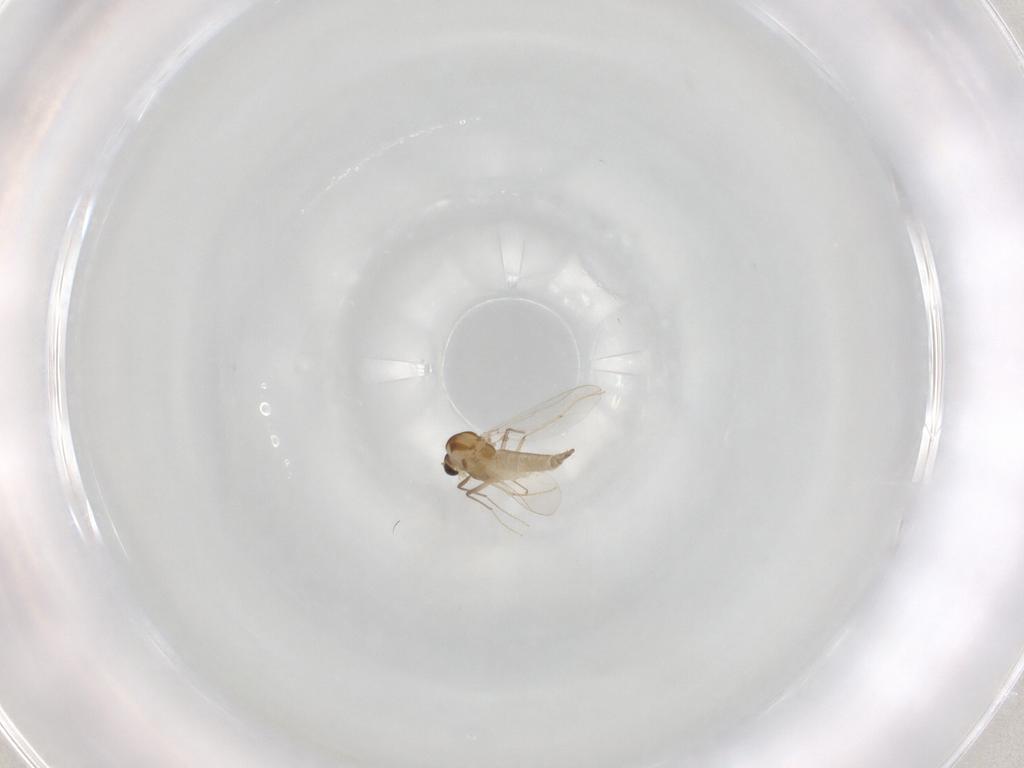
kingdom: Animalia
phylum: Arthropoda
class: Insecta
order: Diptera
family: Chironomidae
